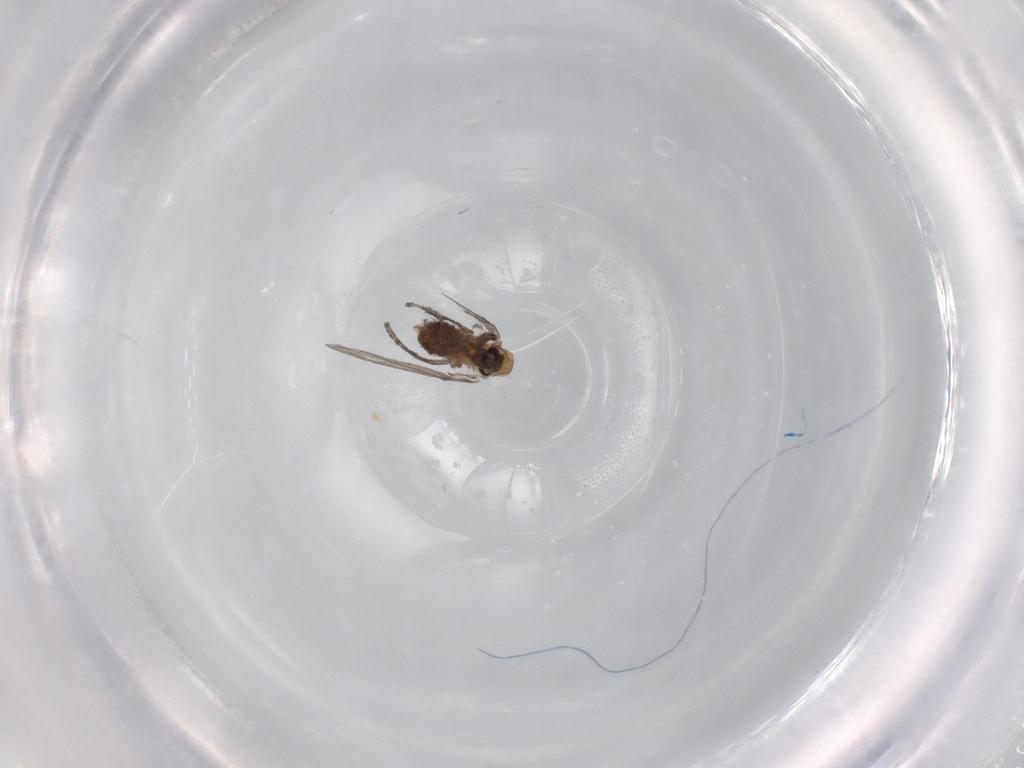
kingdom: Animalia
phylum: Arthropoda
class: Insecta
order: Diptera
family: Psychodidae
